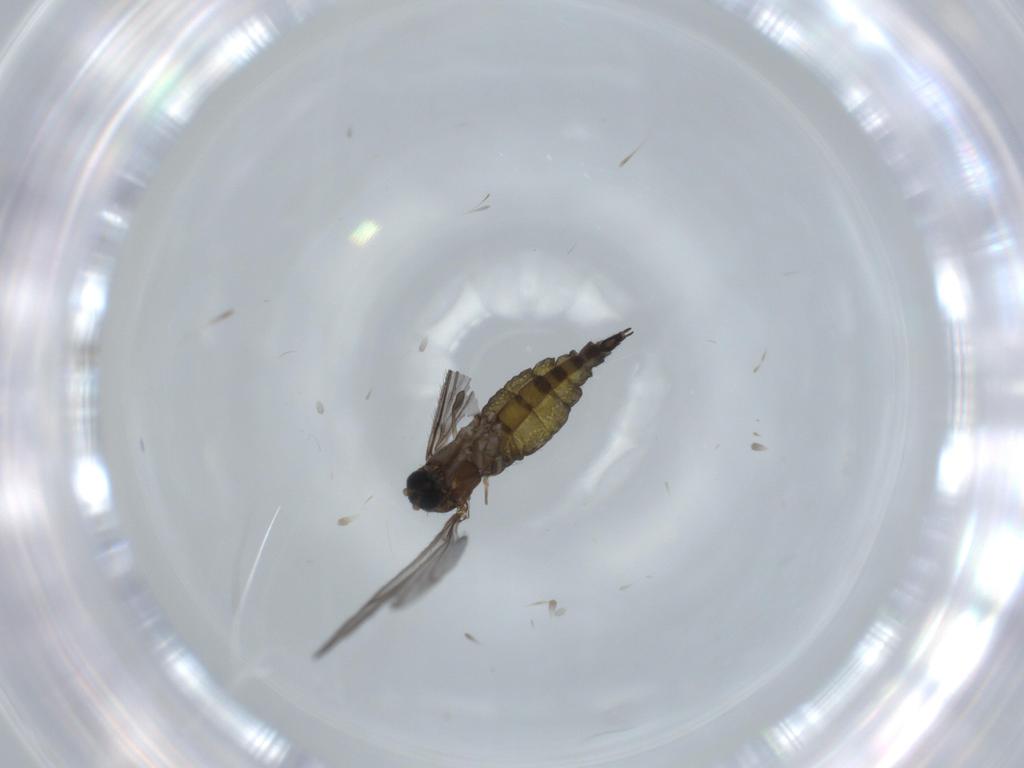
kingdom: Animalia
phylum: Arthropoda
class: Insecta
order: Diptera
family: Sciaridae
